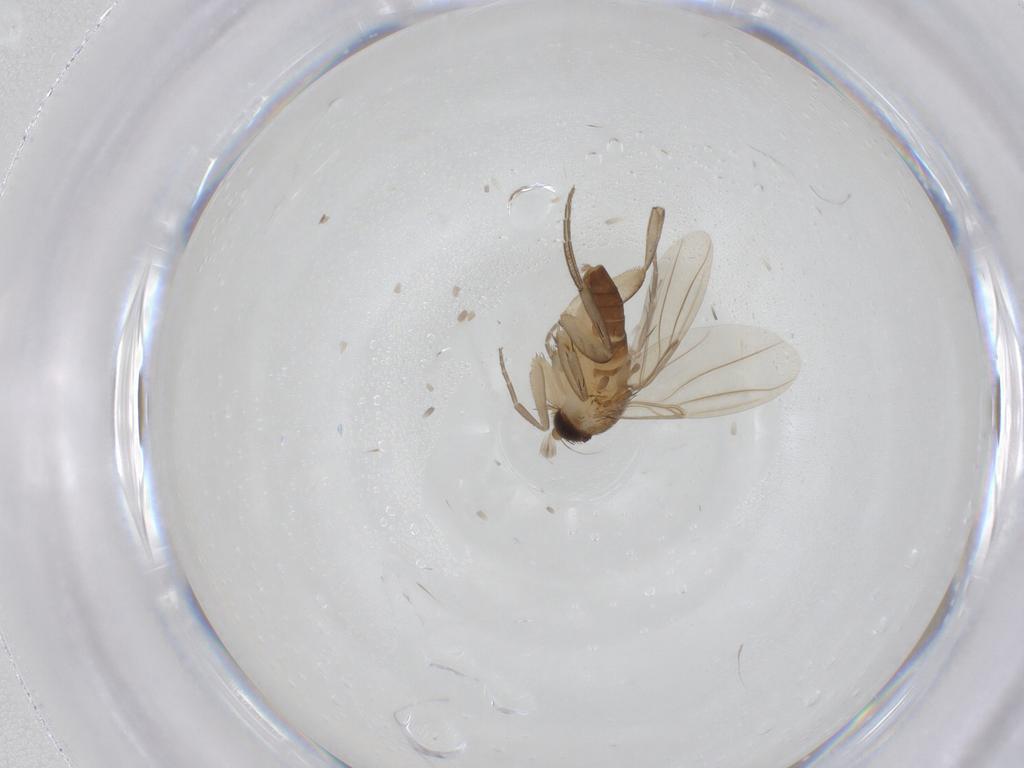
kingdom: Animalia
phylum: Arthropoda
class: Insecta
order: Diptera
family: Phoridae
